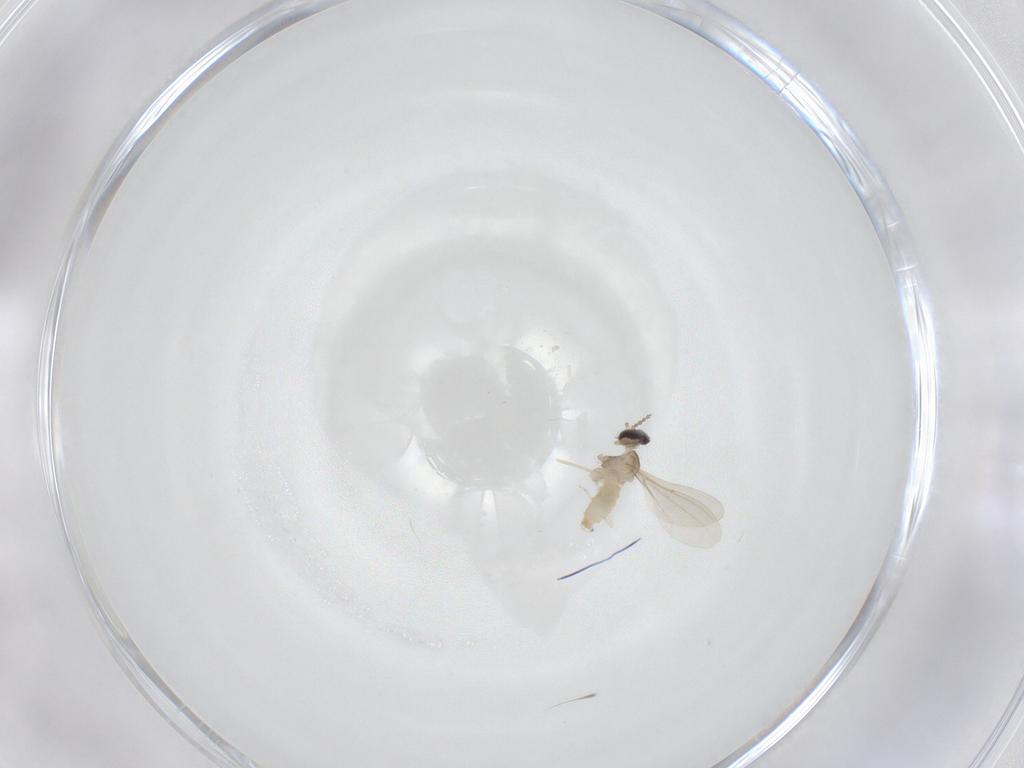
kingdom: Animalia
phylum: Arthropoda
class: Insecta
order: Diptera
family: Cecidomyiidae
